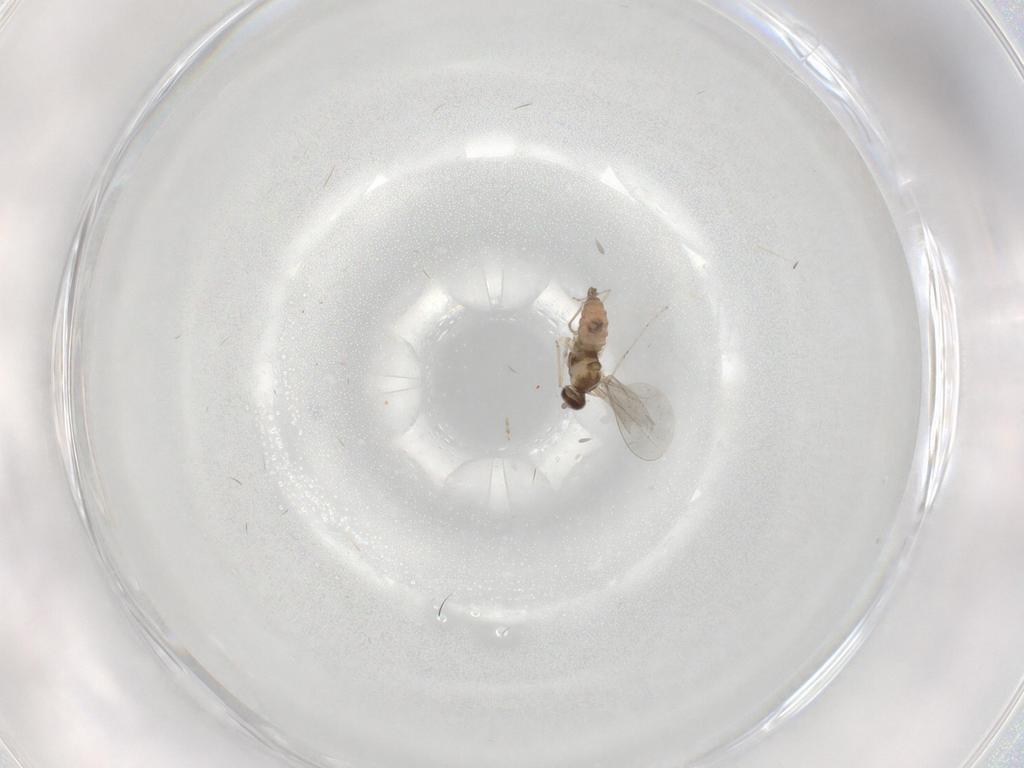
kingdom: Animalia
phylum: Arthropoda
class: Insecta
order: Diptera
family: Cecidomyiidae
